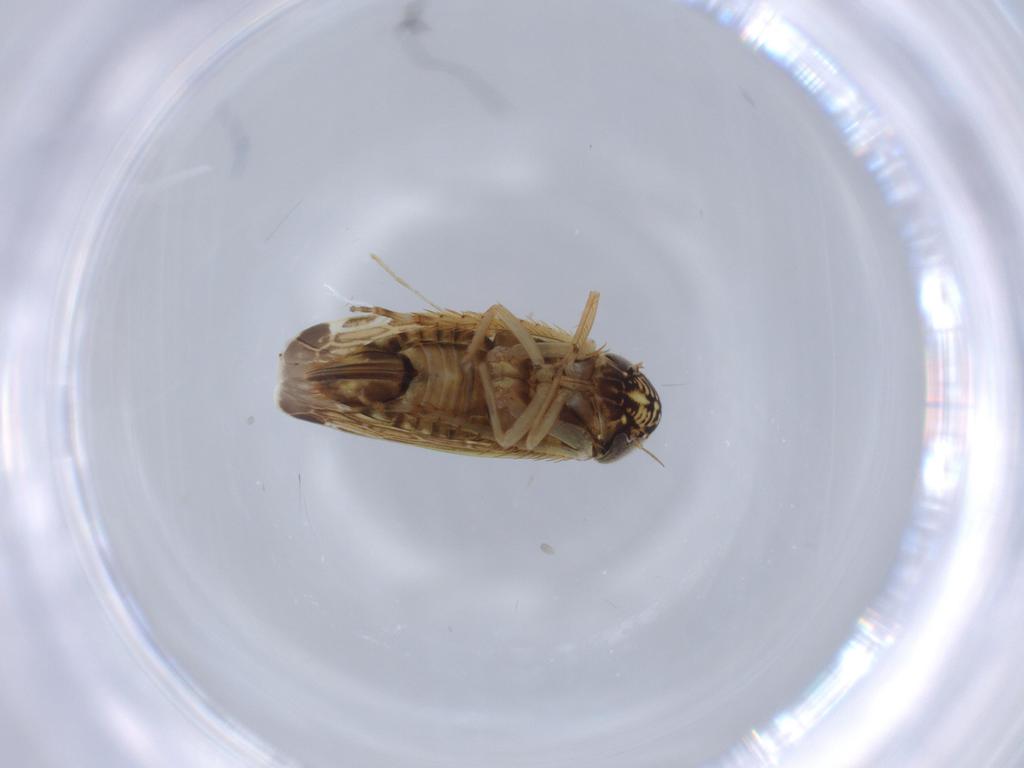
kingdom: Animalia
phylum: Arthropoda
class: Insecta
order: Hemiptera
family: Cicadellidae
